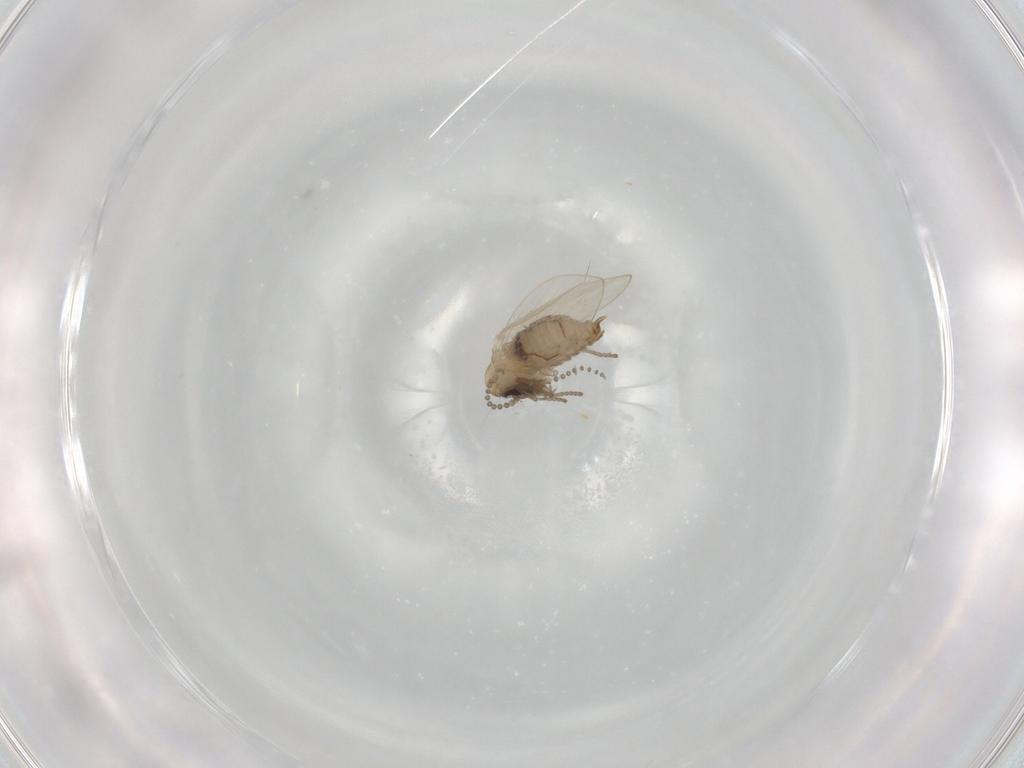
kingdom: Animalia
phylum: Arthropoda
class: Insecta
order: Diptera
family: Psychodidae
